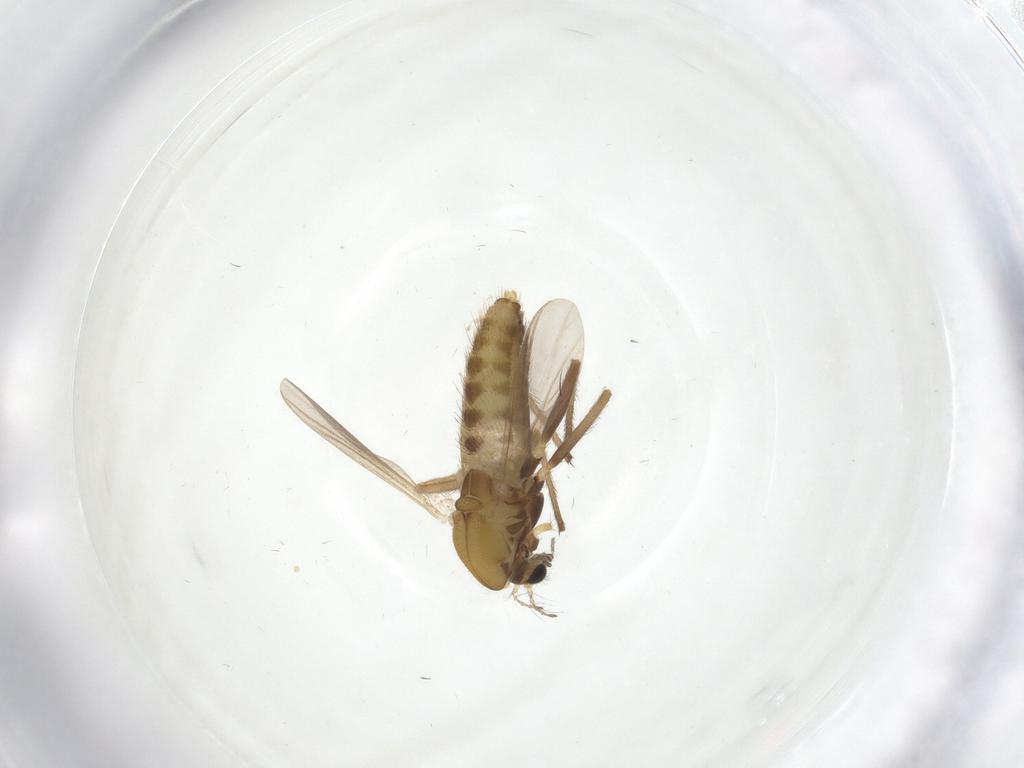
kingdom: Animalia
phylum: Arthropoda
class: Insecta
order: Diptera
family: Chironomidae
